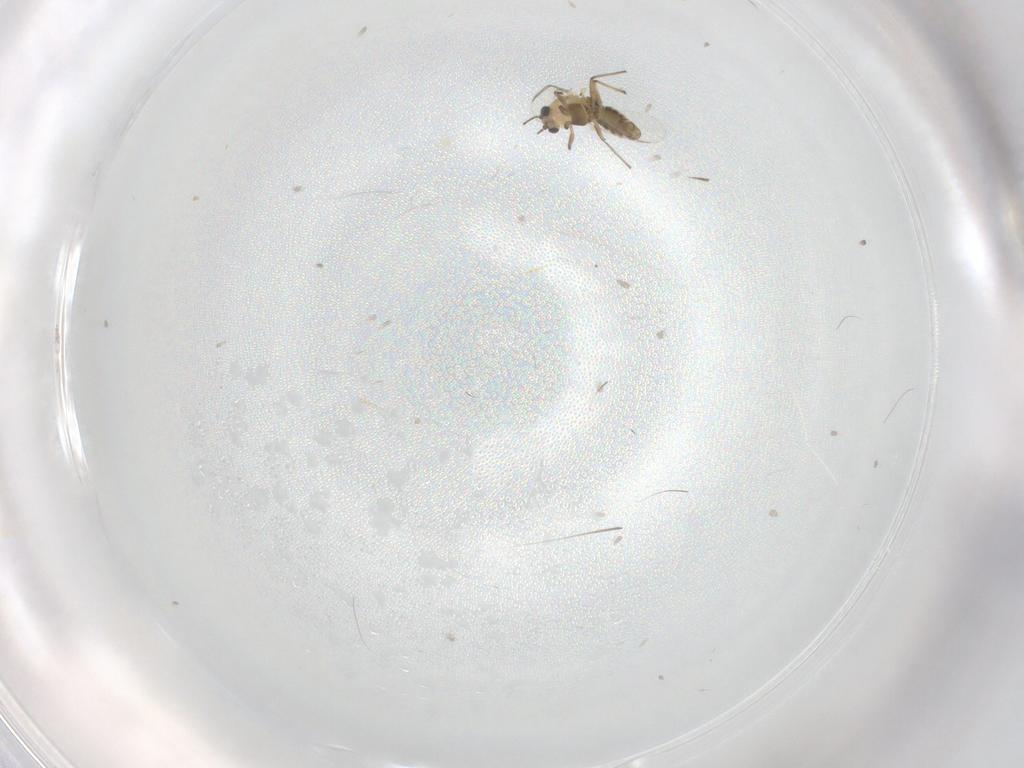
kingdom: Animalia
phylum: Arthropoda
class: Insecta
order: Diptera
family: Chironomidae
